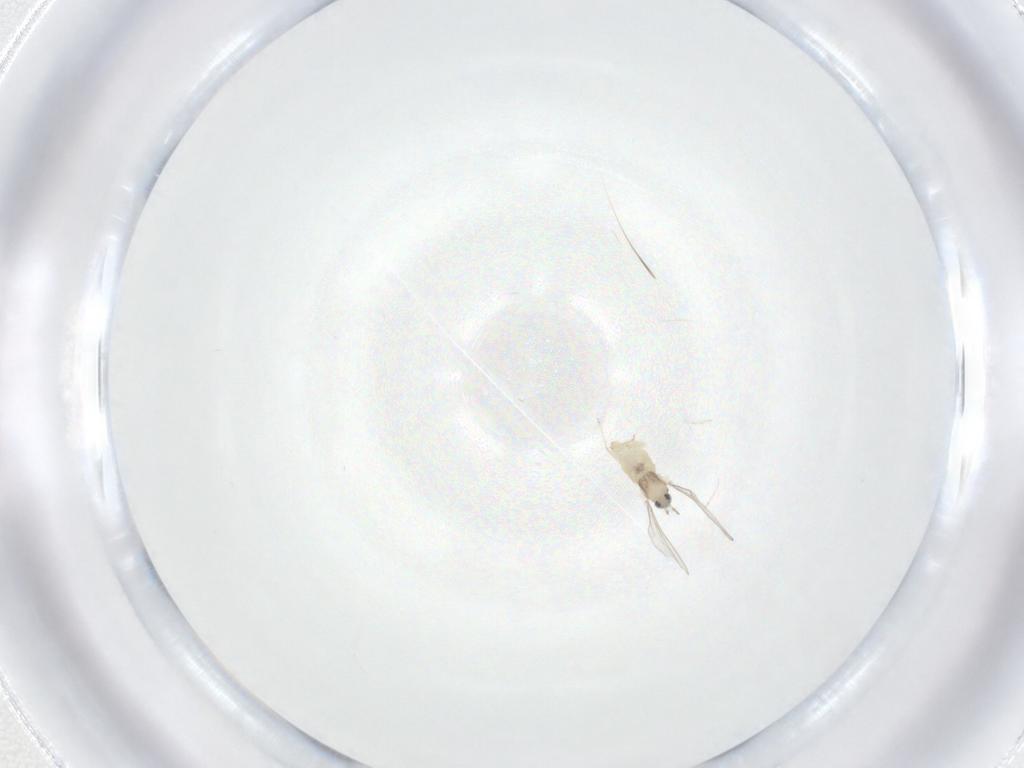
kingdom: Animalia
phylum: Arthropoda
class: Insecta
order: Diptera
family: Cecidomyiidae
